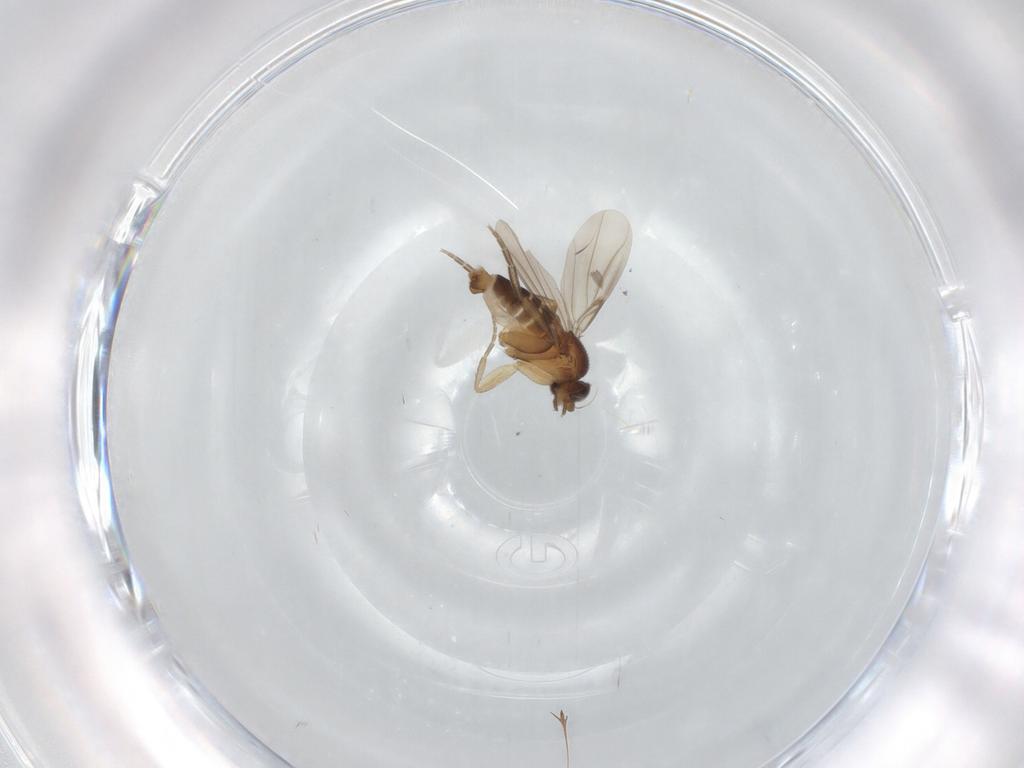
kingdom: Animalia
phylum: Arthropoda
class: Insecta
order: Diptera
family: Phoridae
